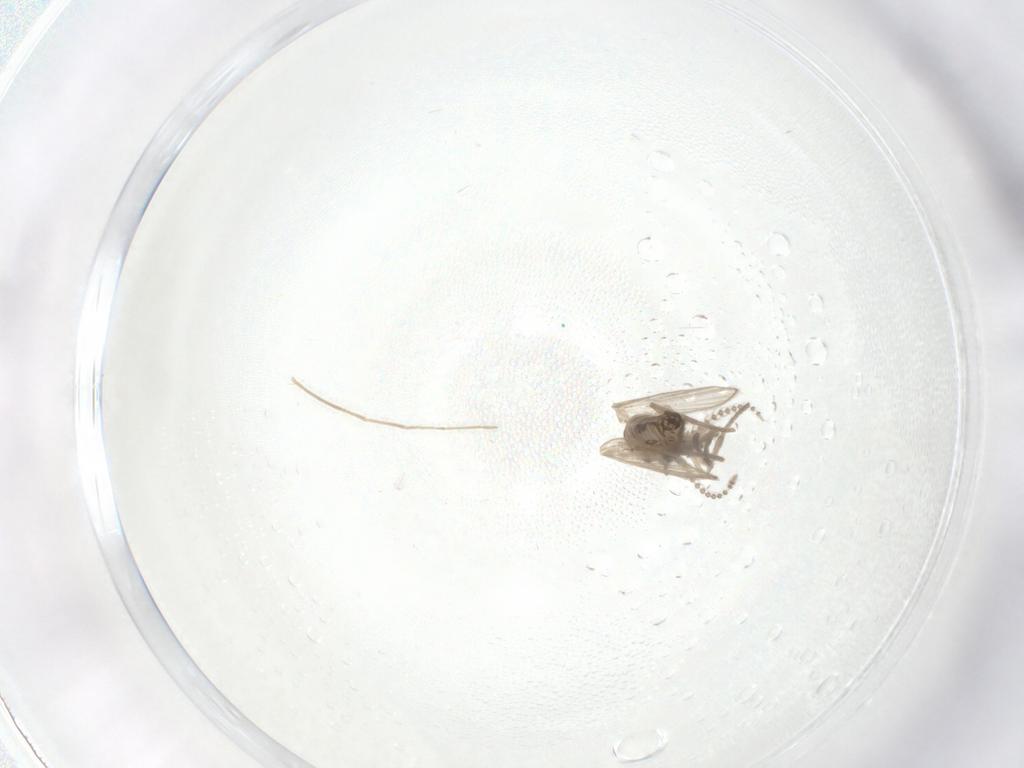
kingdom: Animalia
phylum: Arthropoda
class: Insecta
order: Diptera
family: Psychodidae
